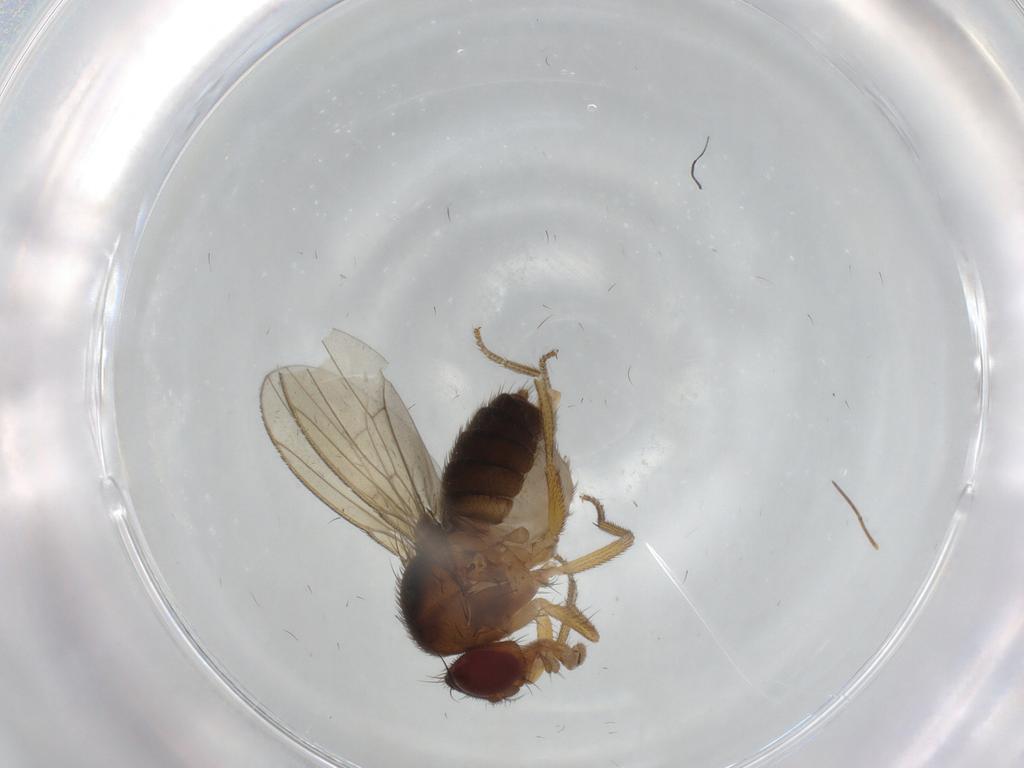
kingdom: Animalia
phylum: Arthropoda
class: Insecta
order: Diptera
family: Drosophilidae
